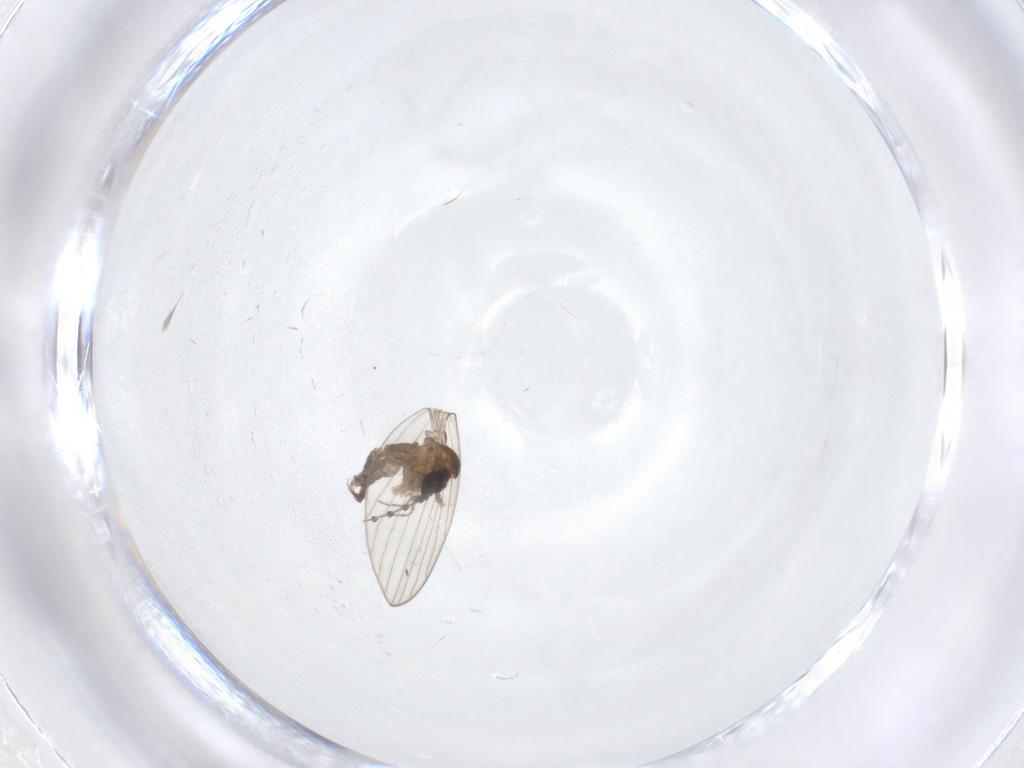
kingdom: Animalia
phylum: Arthropoda
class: Insecta
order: Diptera
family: Psychodidae
